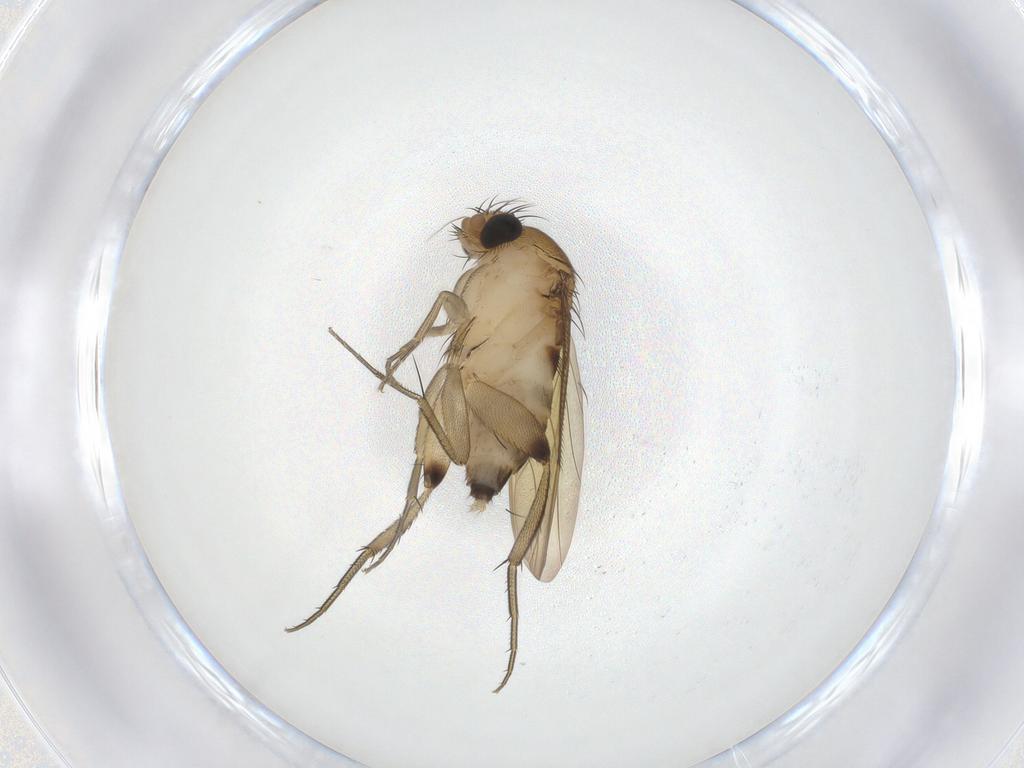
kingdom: Animalia
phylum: Arthropoda
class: Insecta
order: Diptera
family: Phoridae
